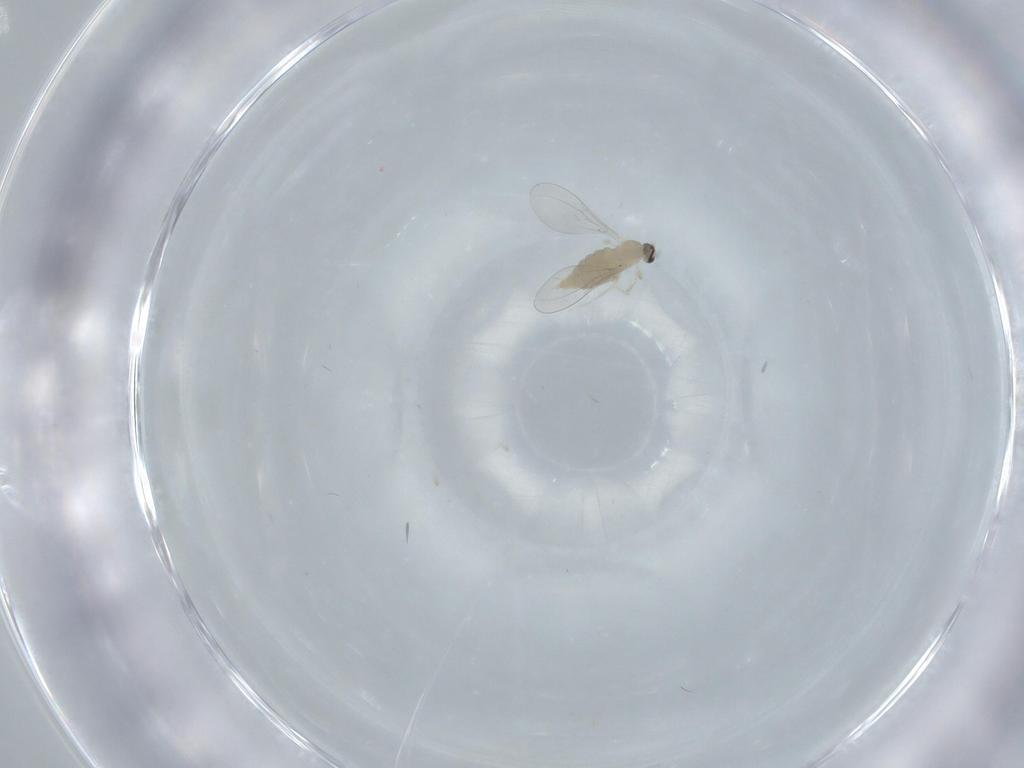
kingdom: Animalia
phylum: Arthropoda
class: Insecta
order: Diptera
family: Cecidomyiidae
